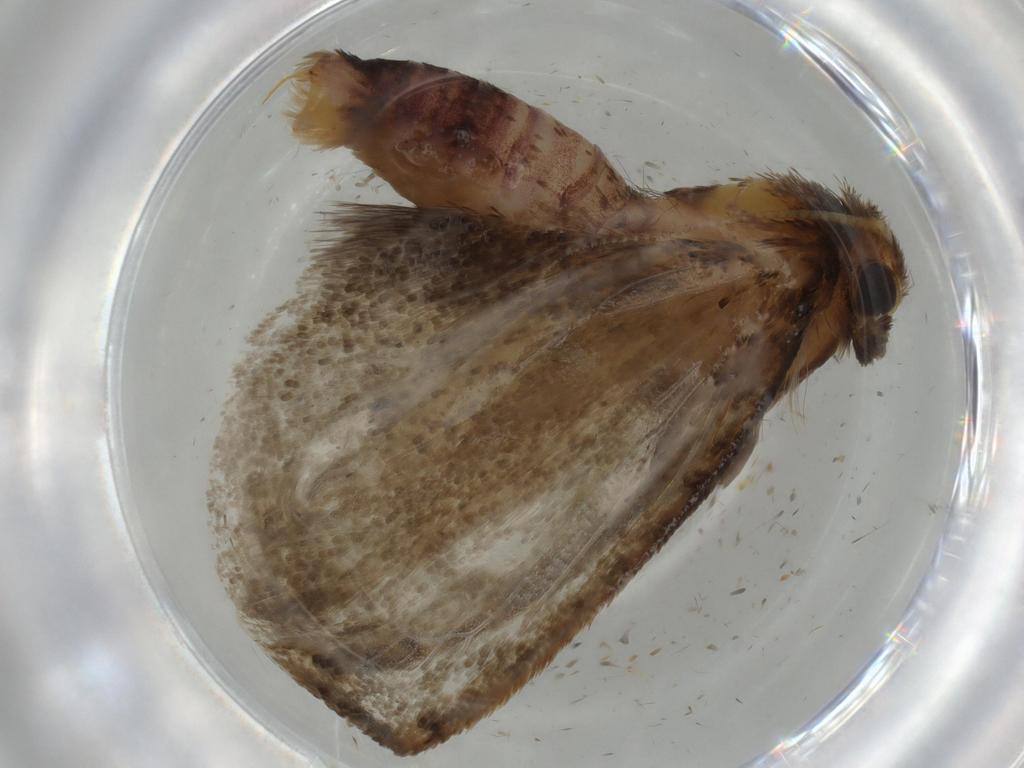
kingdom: Animalia
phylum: Arthropoda
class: Insecta
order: Lepidoptera
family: Tineidae
